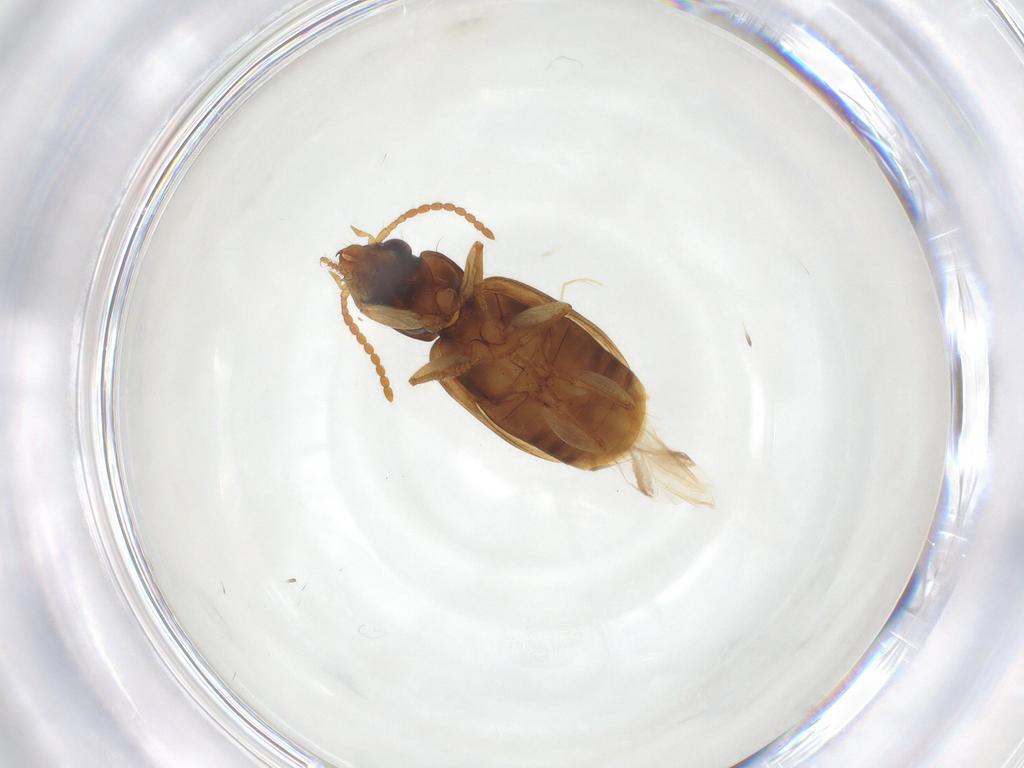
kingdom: Animalia
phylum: Arthropoda
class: Insecta
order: Coleoptera
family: Carabidae
